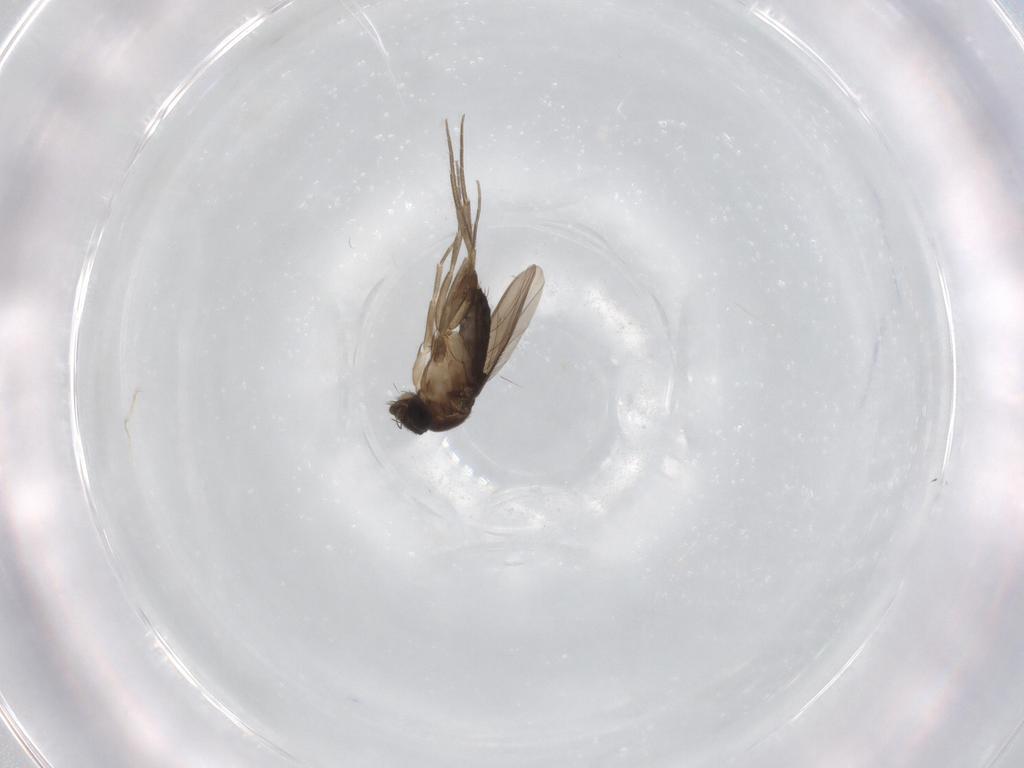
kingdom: Animalia
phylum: Arthropoda
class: Insecta
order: Diptera
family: Phoridae
